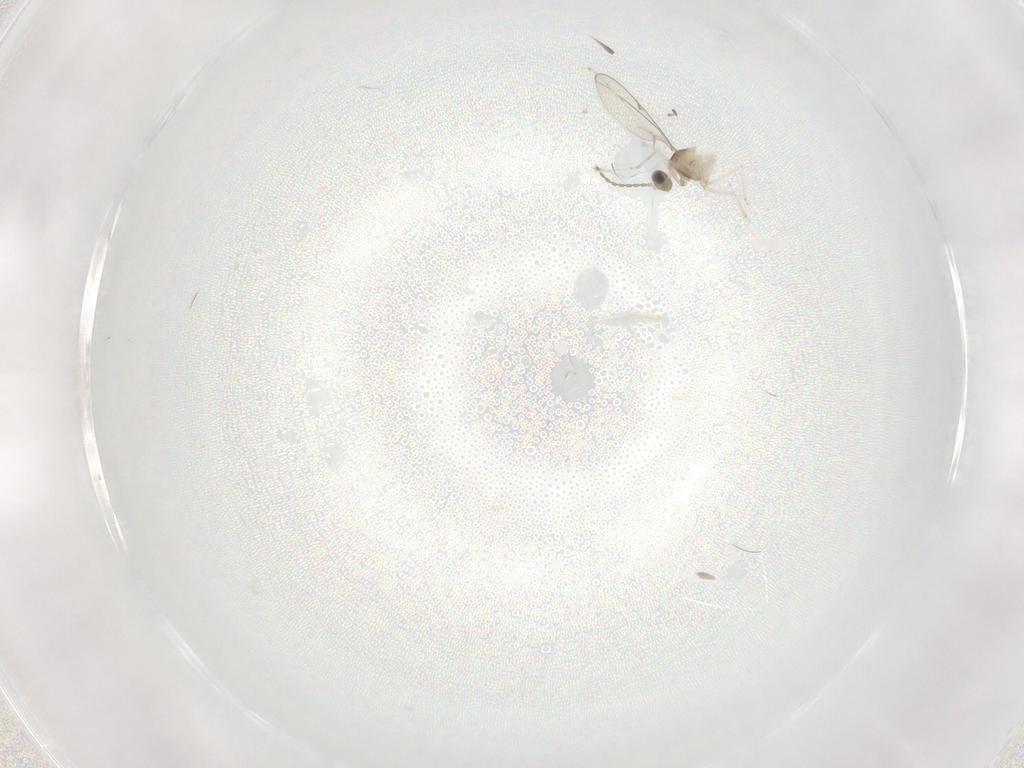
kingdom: Animalia
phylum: Arthropoda
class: Insecta
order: Diptera
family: Cecidomyiidae
